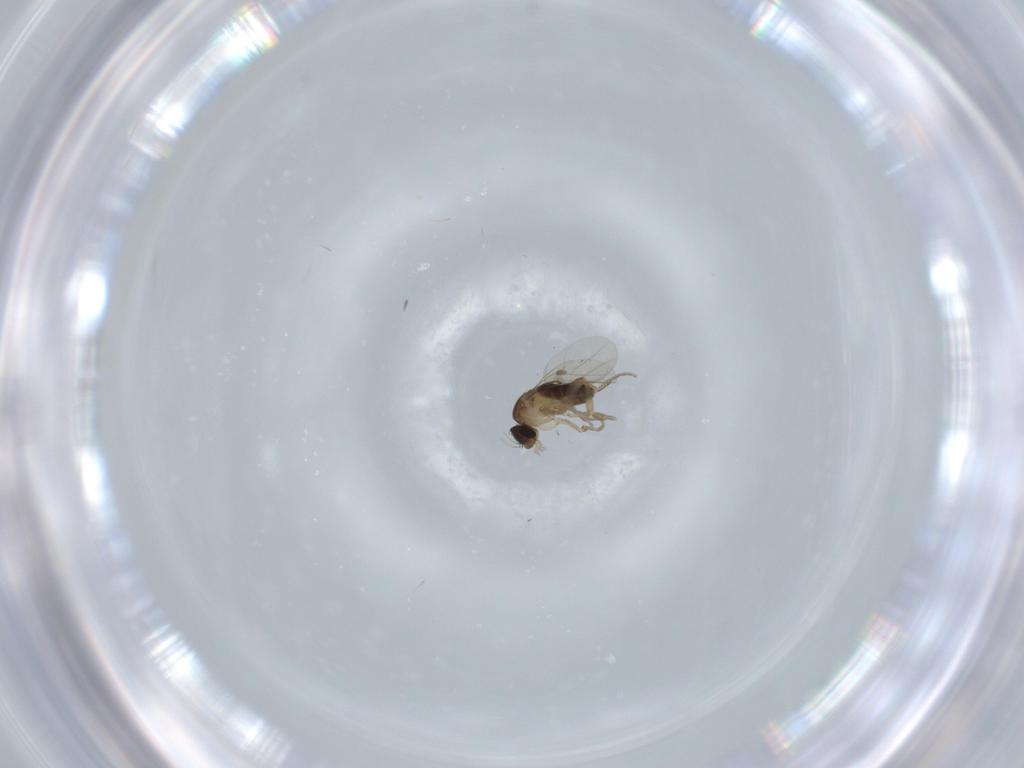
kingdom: Animalia
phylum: Arthropoda
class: Insecta
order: Diptera
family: Phoridae
